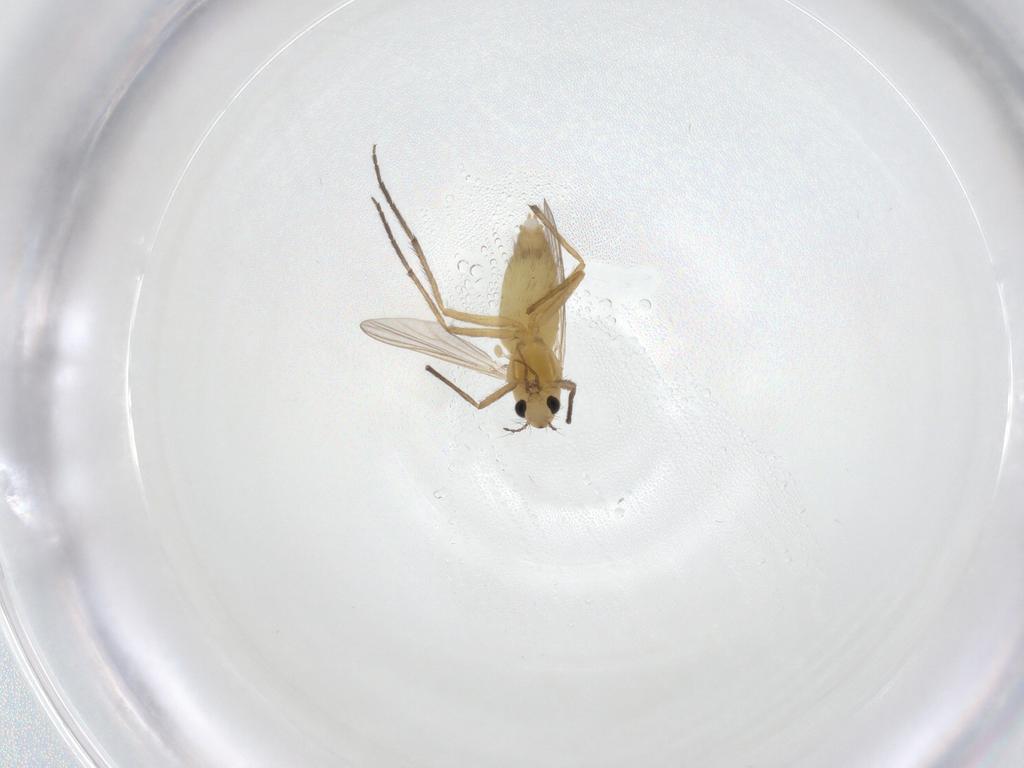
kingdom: Animalia
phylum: Arthropoda
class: Insecta
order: Diptera
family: Chironomidae
